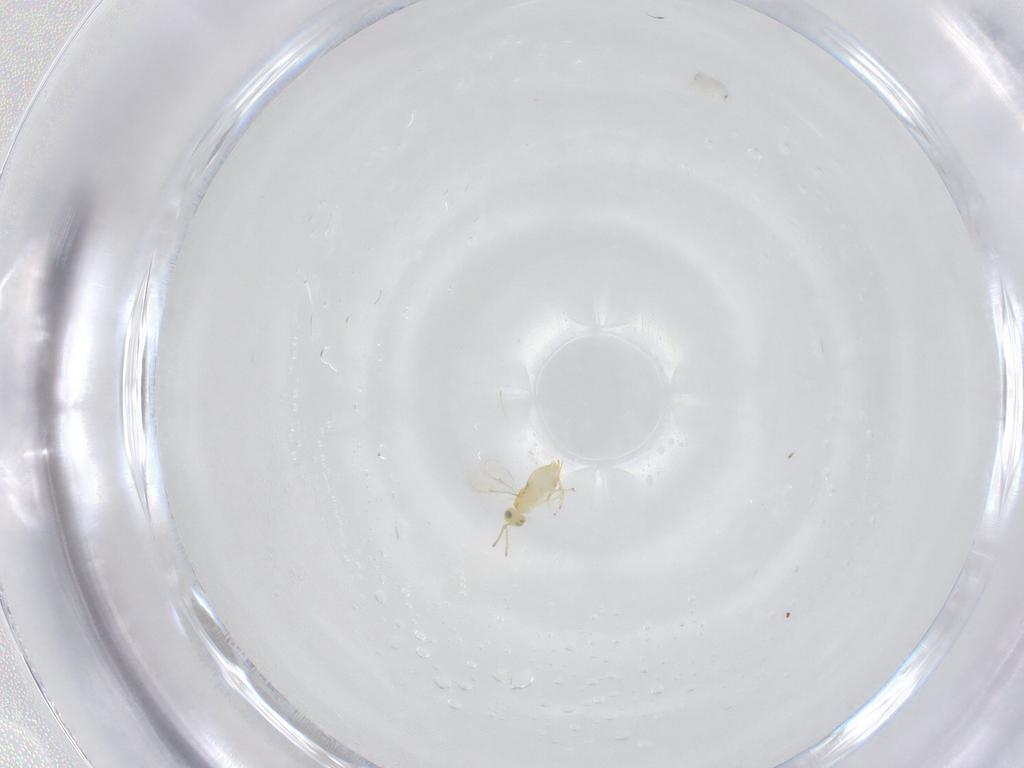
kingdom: Animalia
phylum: Arthropoda
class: Insecta
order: Hymenoptera
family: Aphelinidae
